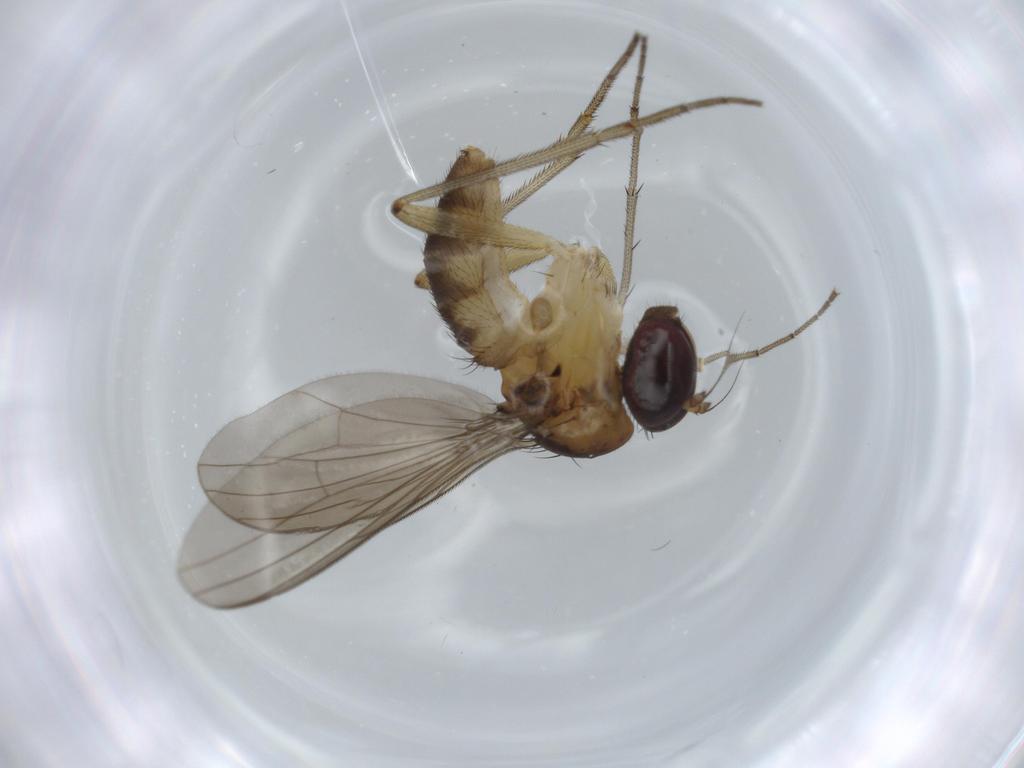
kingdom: Animalia
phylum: Arthropoda
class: Insecta
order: Diptera
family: Dolichopodidae
